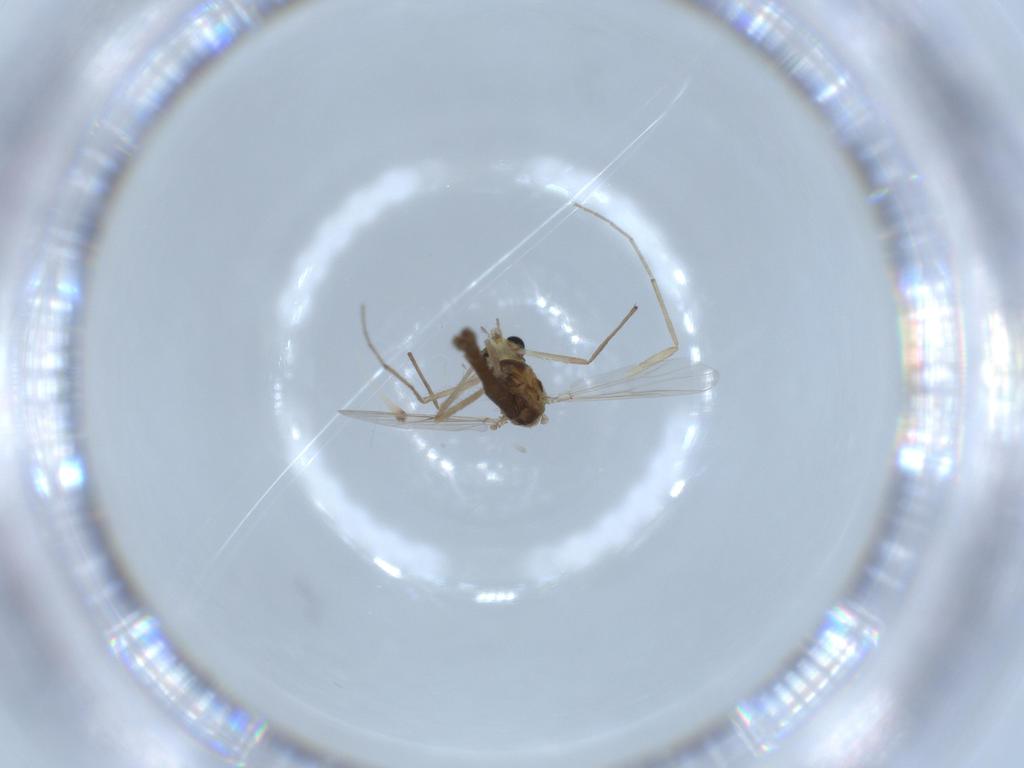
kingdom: Animalia
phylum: Arthropoda
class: Insecta
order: Diptera
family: Chironomidae
